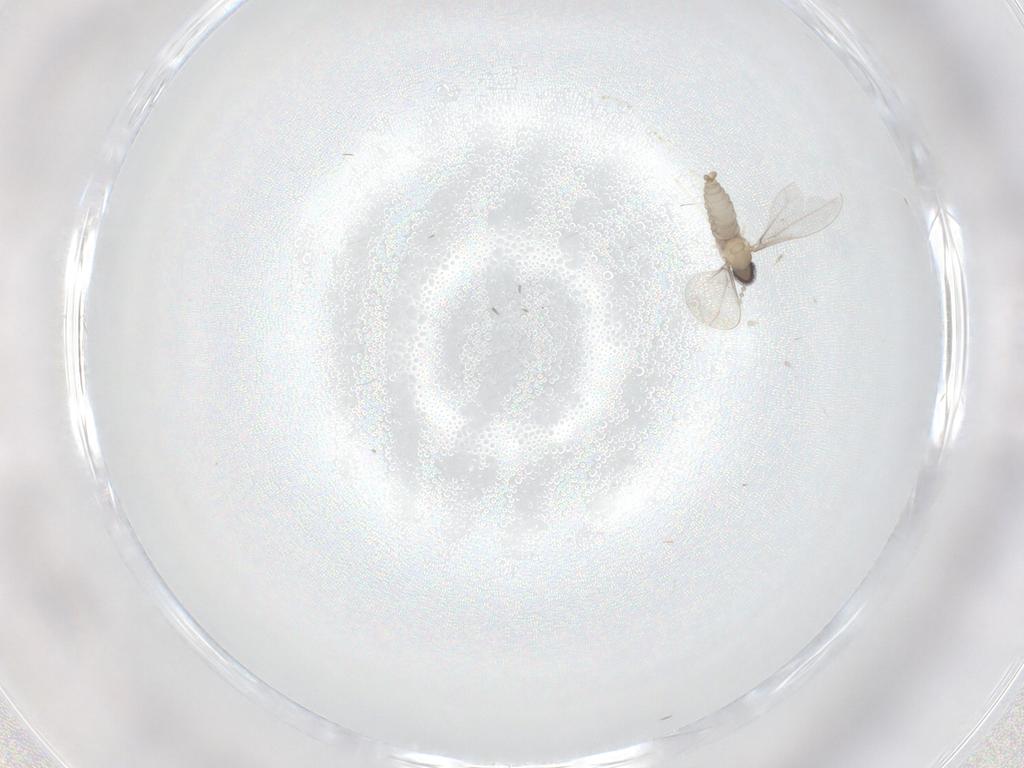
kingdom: Animalia
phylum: Arthropoda
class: Insecta
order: Diptera
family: Cecidomyiidae
